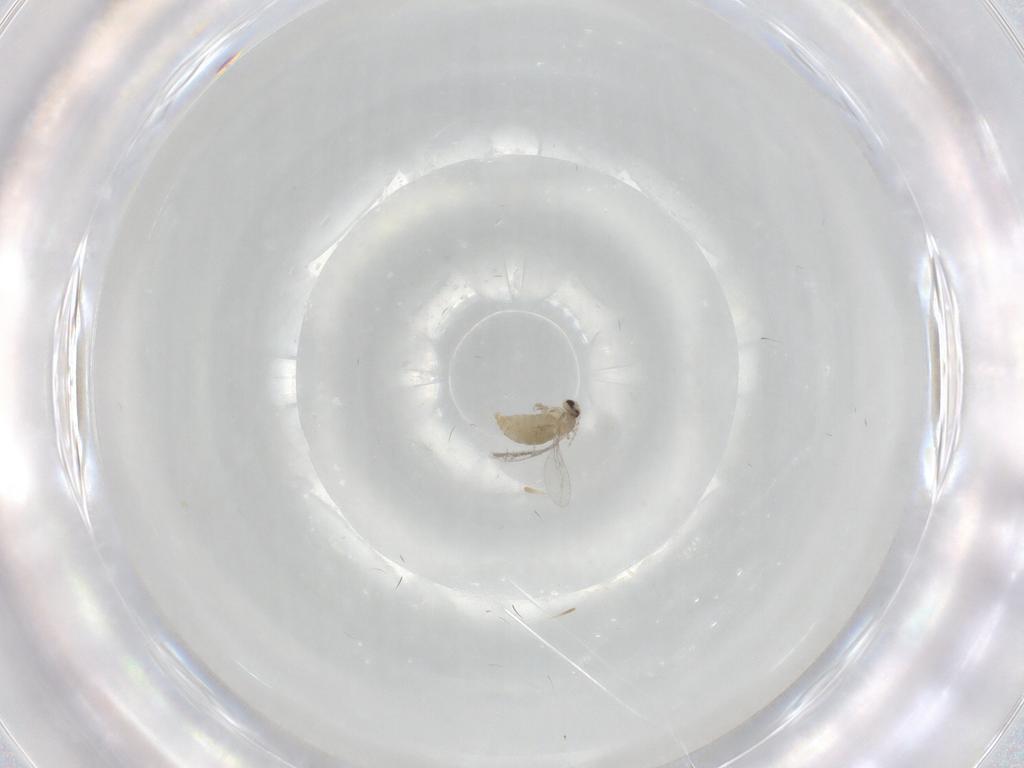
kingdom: Animalia
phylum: Arthropoda
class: Insecta
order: Diptera
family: Cecidomyiidae
